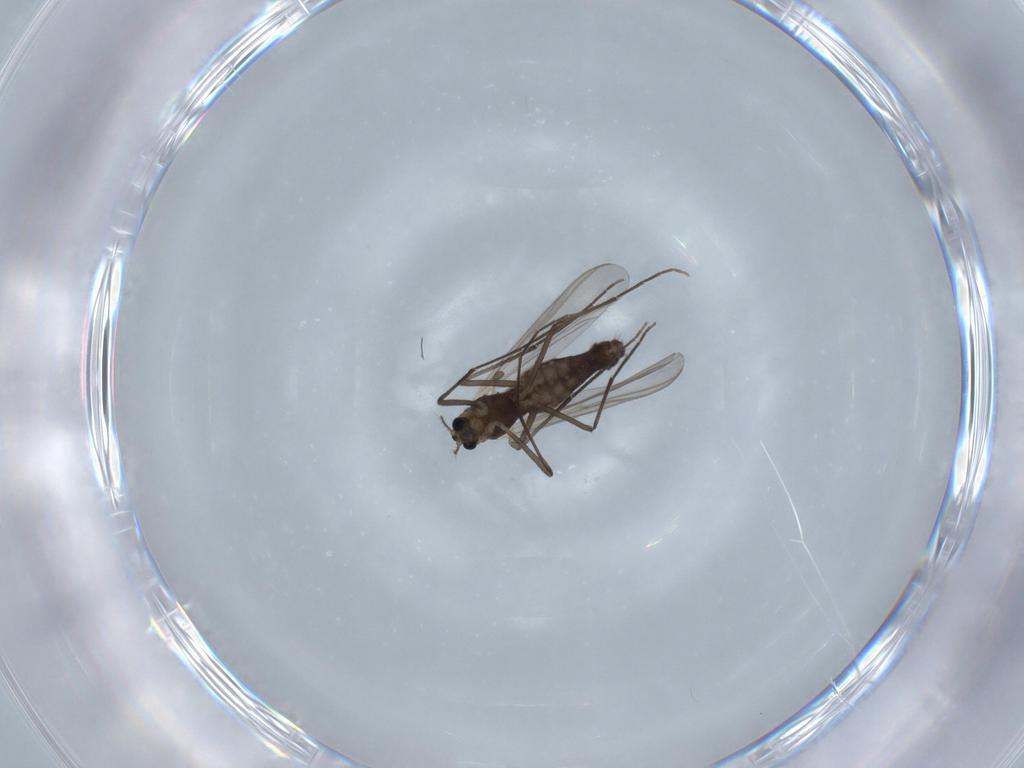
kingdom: Animalia
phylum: Arthropoda
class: Insecta
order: Diptera
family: Chironomidae
